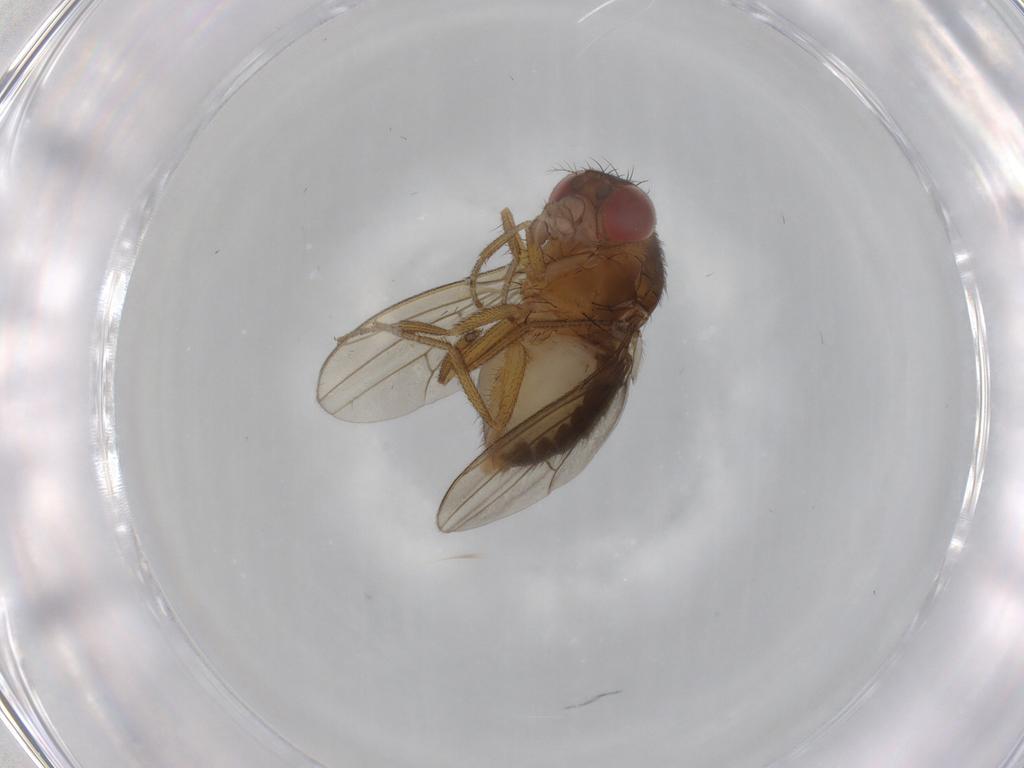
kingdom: Animalia
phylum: Arthropoda
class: Insecta
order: Diptera
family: Drosophilidae
